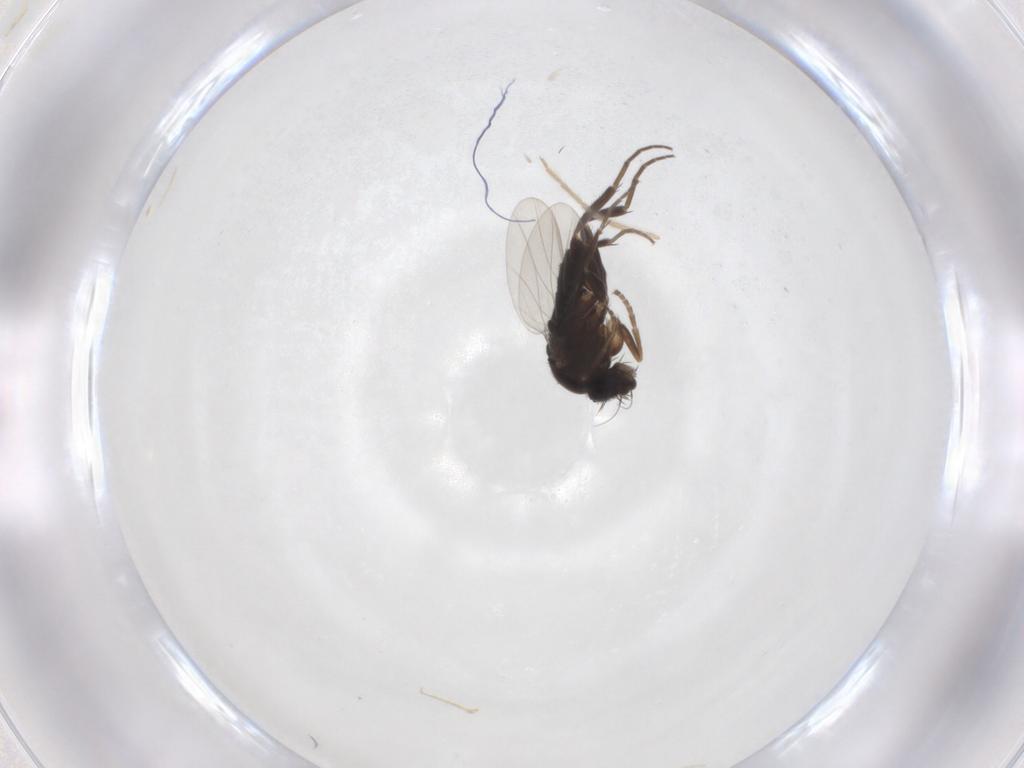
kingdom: Animalia
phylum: Arthropoda
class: Insecta
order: Diptera
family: Phoridae
